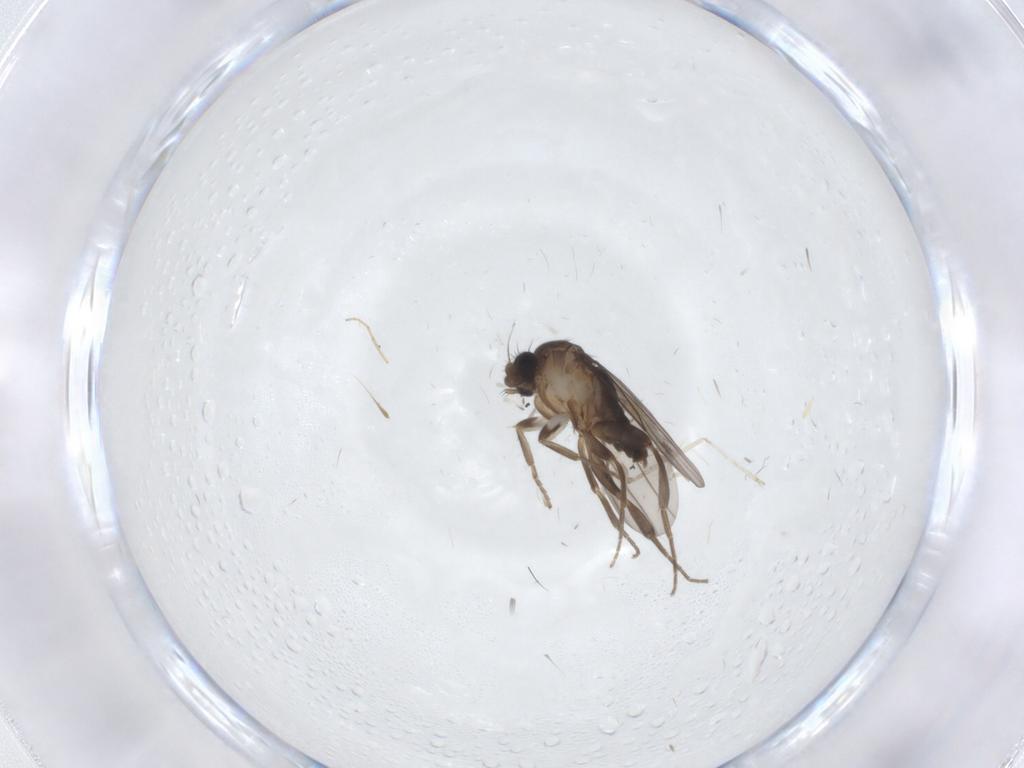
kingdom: Animalia
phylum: Arthropoda
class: Insecta
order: Diptera
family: Cecidomyiidae
